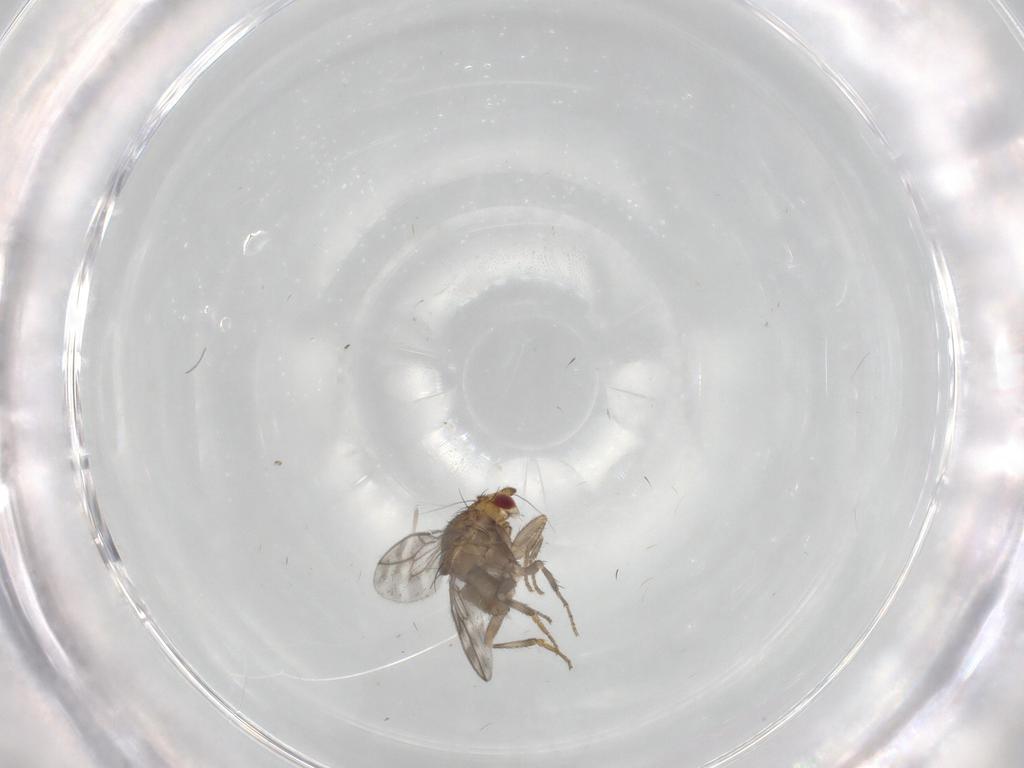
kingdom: Animalia
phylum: Arthropoda
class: Insecta
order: Diptera
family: Sphaeroceridae
